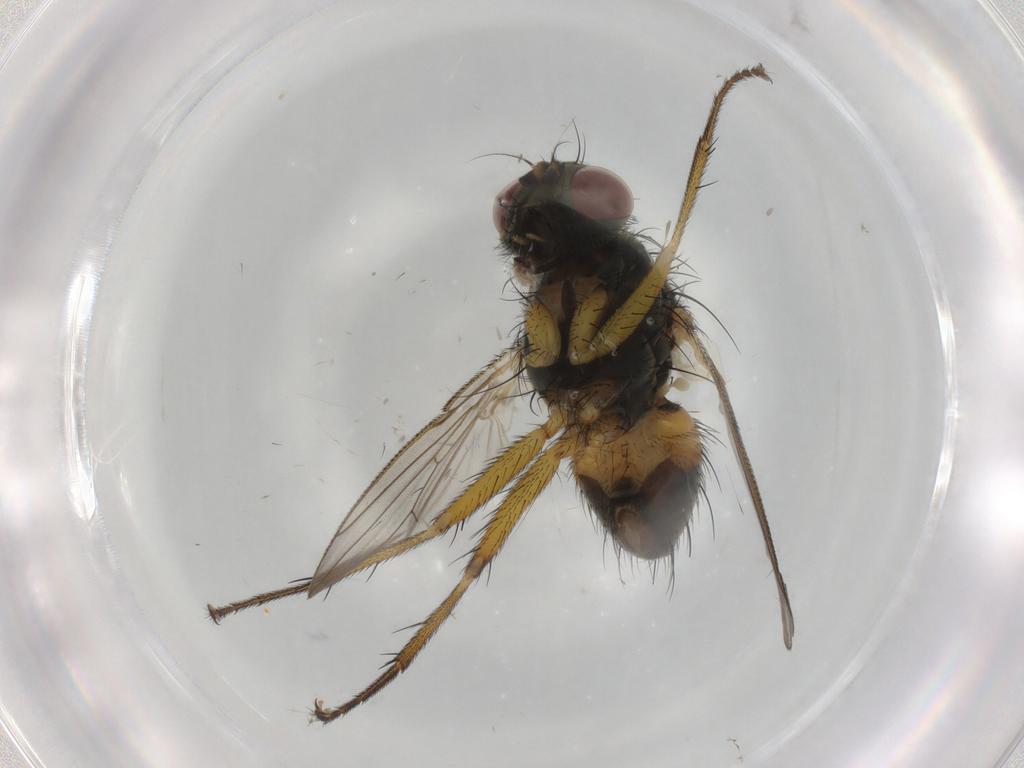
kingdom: Animalia
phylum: Arthropoda
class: Insecta
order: Diptera
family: Muscidae
